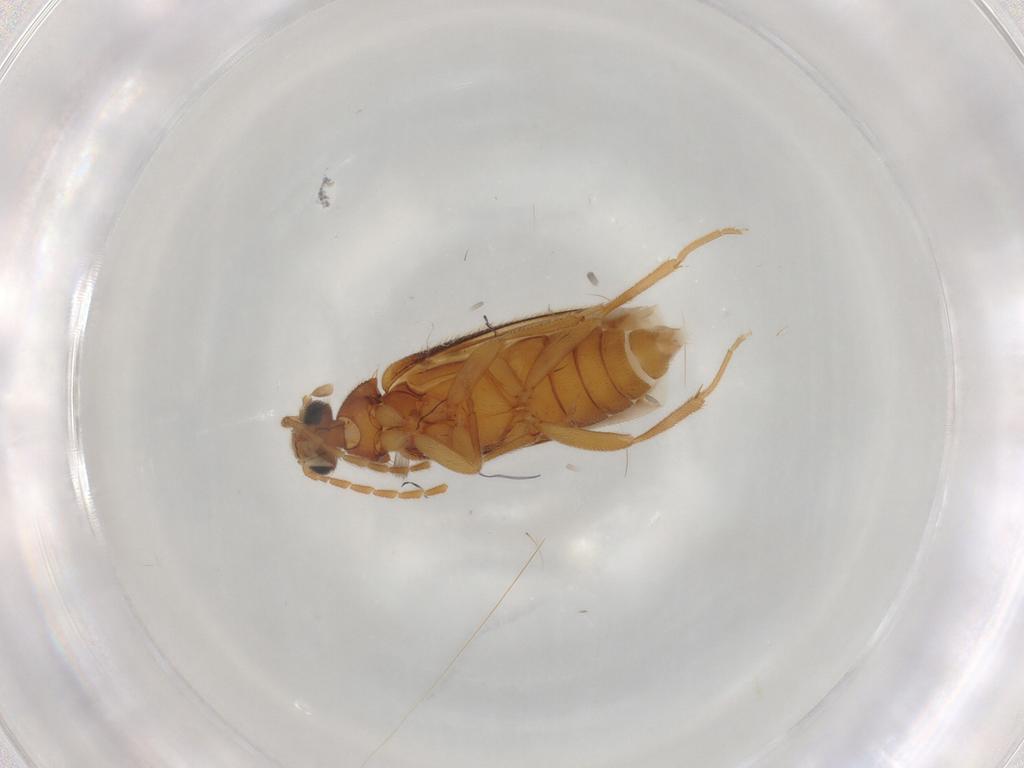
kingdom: Animalia
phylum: Arthropoda
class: Insecta
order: Coleoptera
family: Scraptiidae
